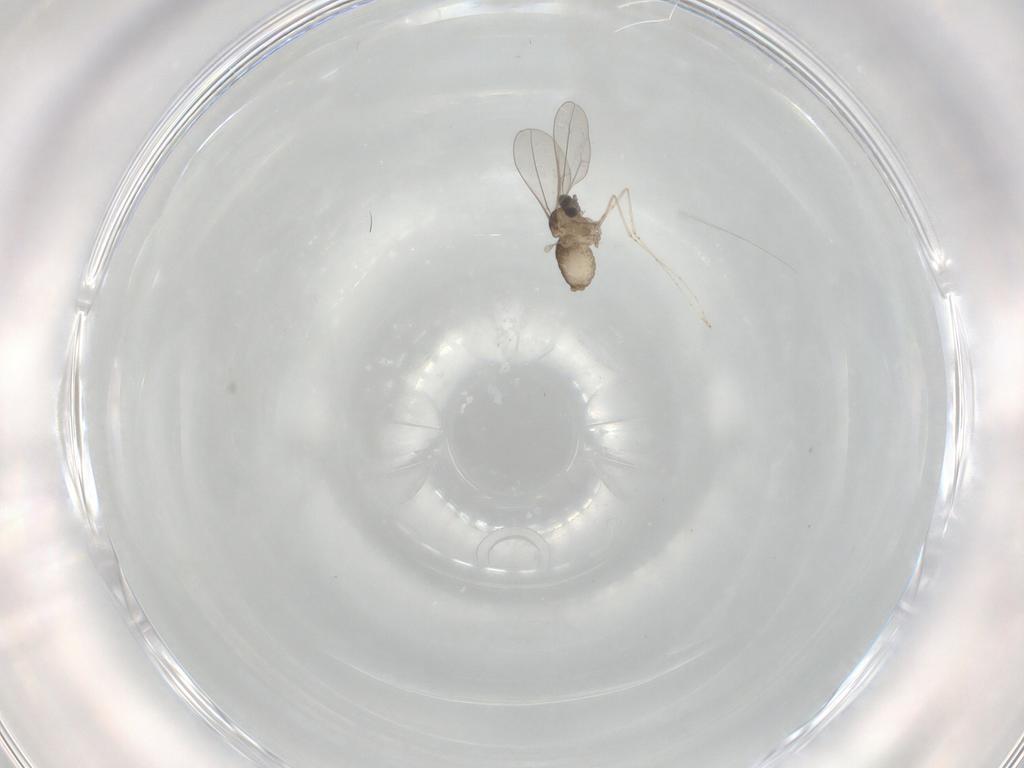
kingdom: Animalia
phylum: Arthropoda
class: Insecta
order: Diptera
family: Cecidomyiidae
